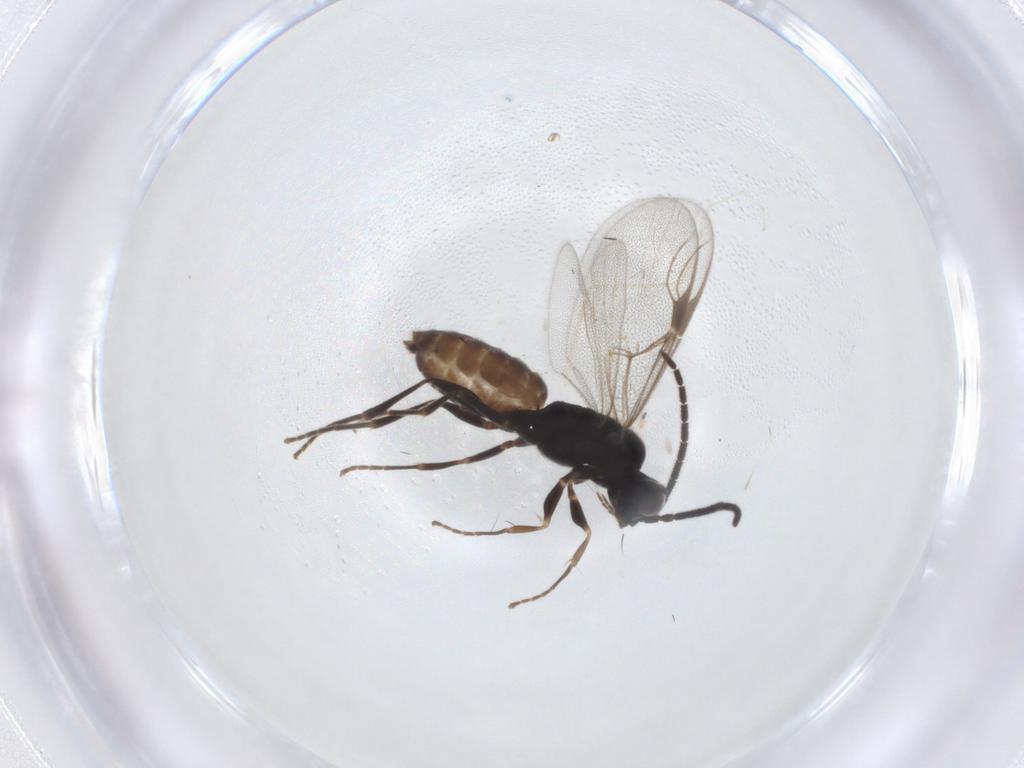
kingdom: Animalia
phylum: Arthropoda
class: Insecta
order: Hymenoptera
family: Dryinidae
